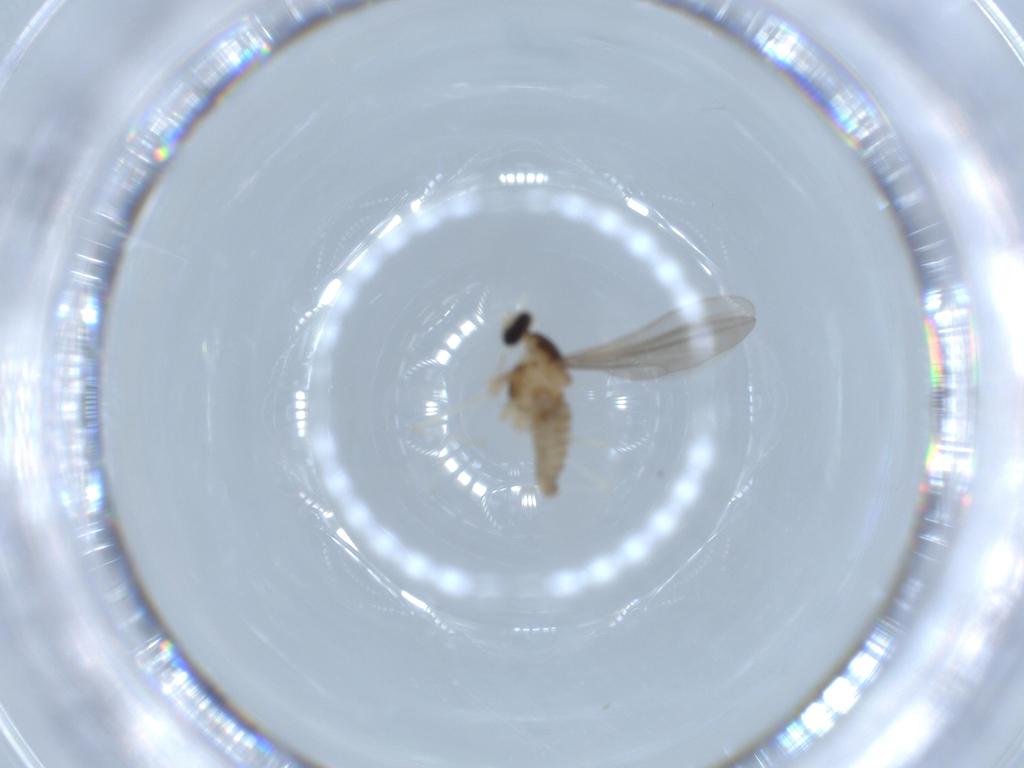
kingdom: Animalia
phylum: Arthropoda
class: Insecta
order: Diptera
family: Cecidomyiidae
